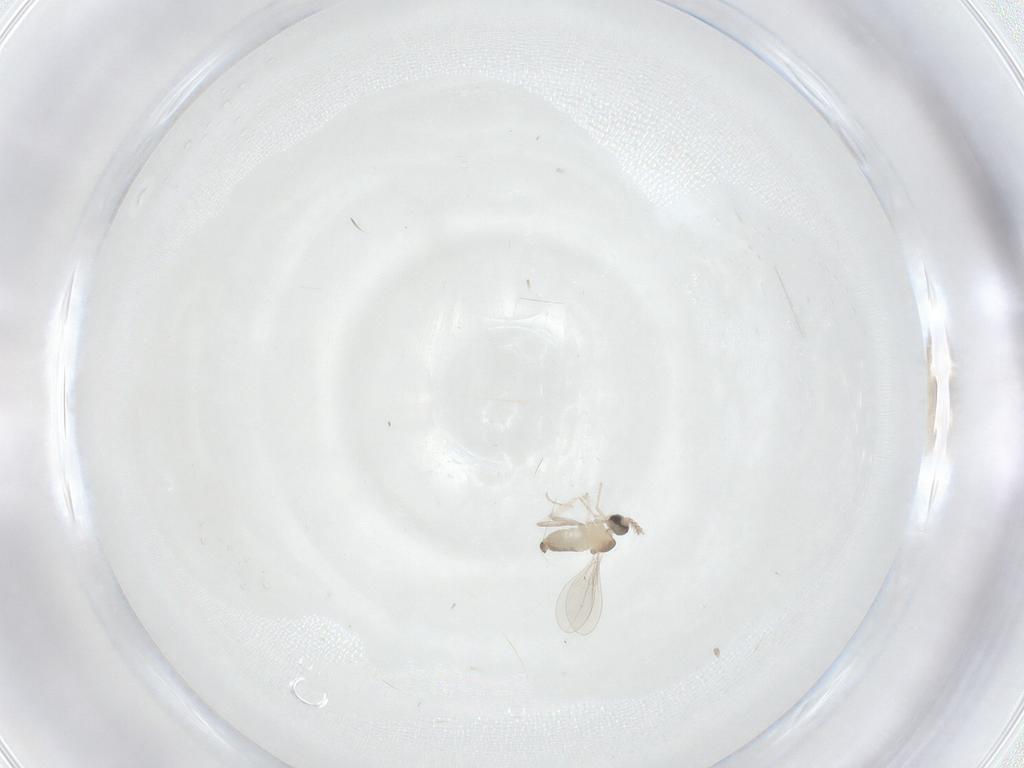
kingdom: Animalia
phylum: Arthropoda
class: Insecta
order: Diptera
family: Cecidomyiidae
